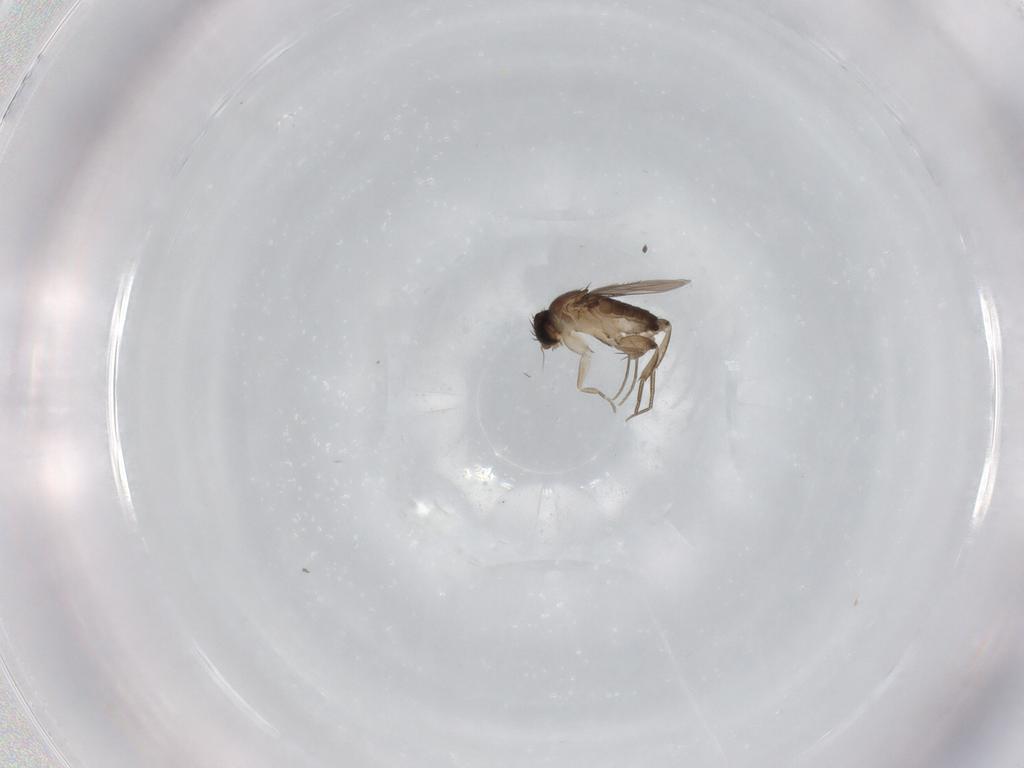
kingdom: Animalia
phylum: Arthropoda
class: Insecta
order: Diptera
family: Phoridae
